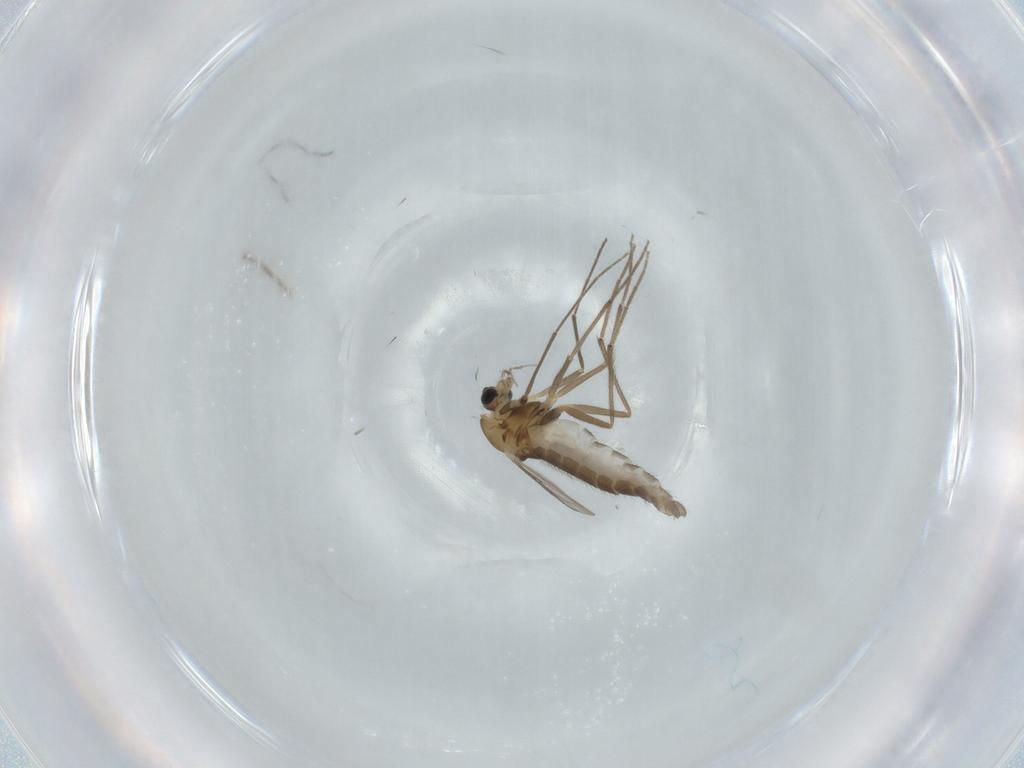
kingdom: Animalia
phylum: Arthropoda
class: Insecta
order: Diptera
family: Chironomidae
